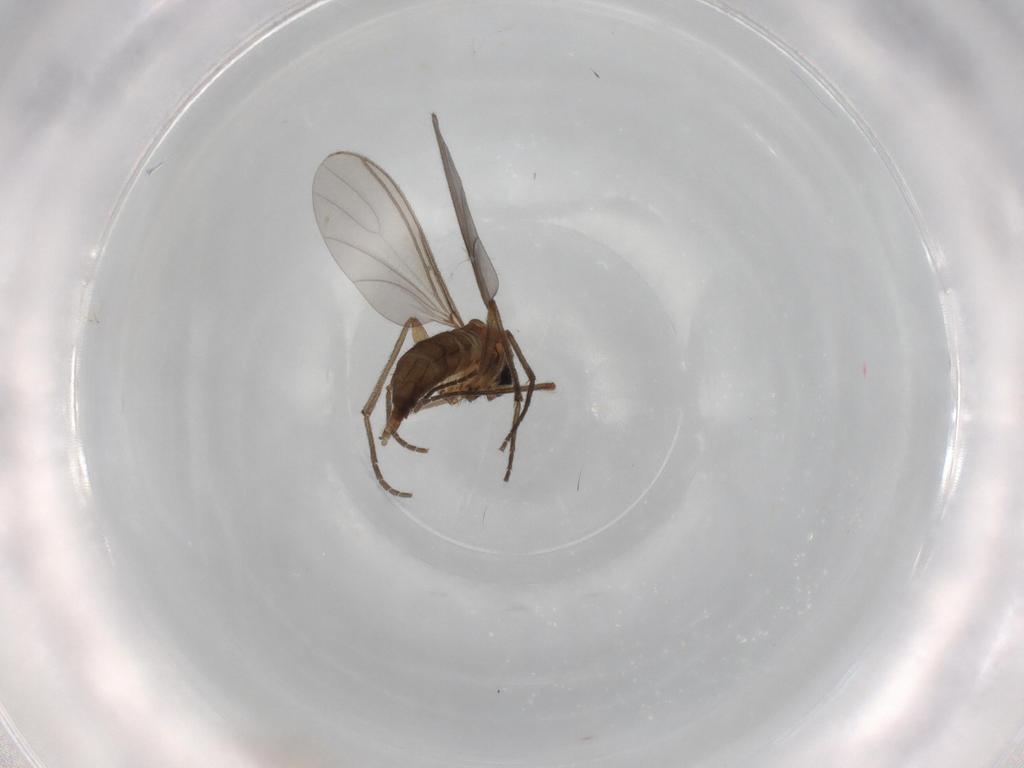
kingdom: Animalia
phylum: Arthropoda
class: Insecta
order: Diptera
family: Sciaridae
